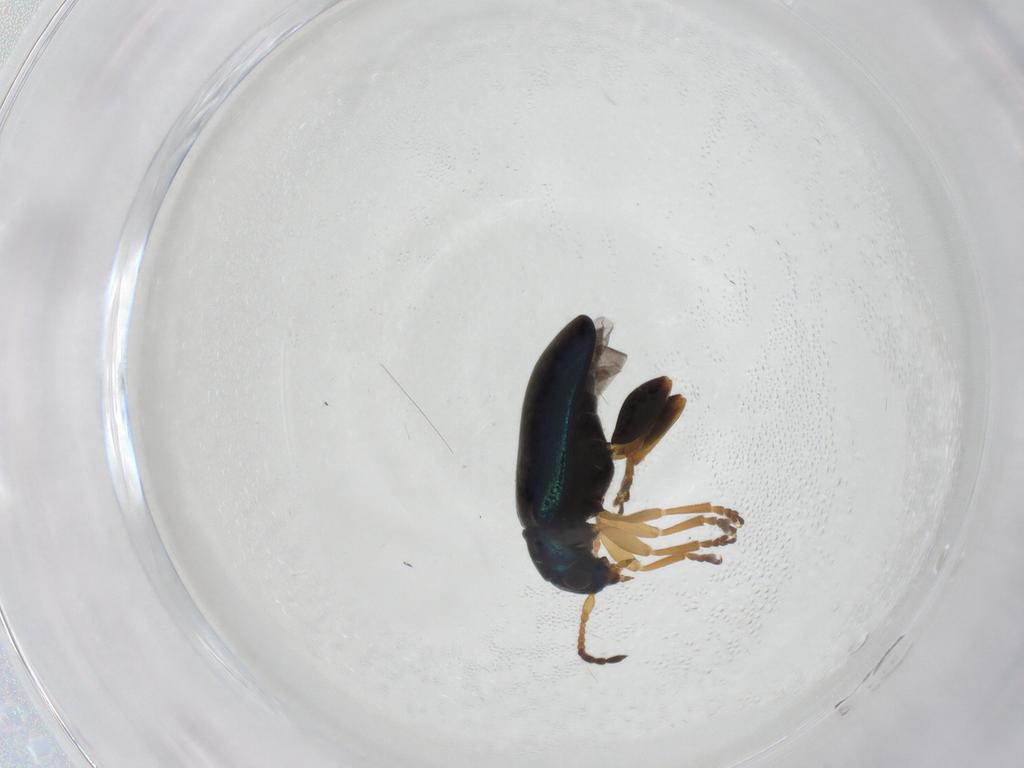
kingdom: Animalia
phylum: Arthropoda
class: Insecta
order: Coleoptera
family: Chrysomelidae
